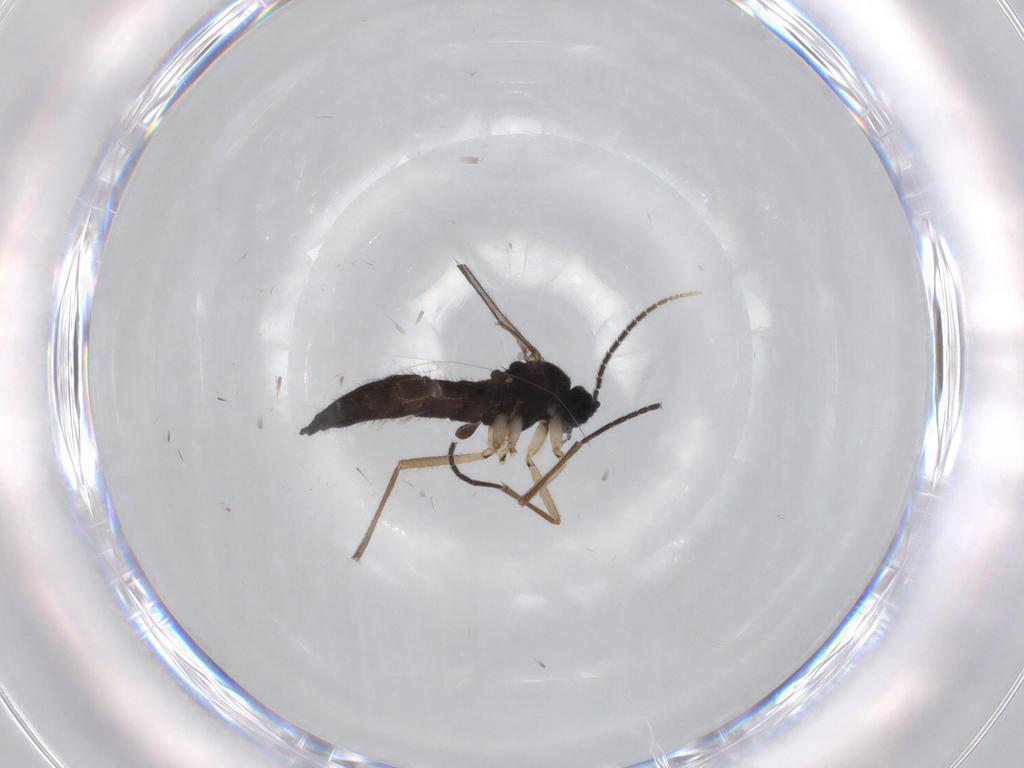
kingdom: Animalia
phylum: Arthropoda
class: Insecta
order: Diptera
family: Sciaridae
